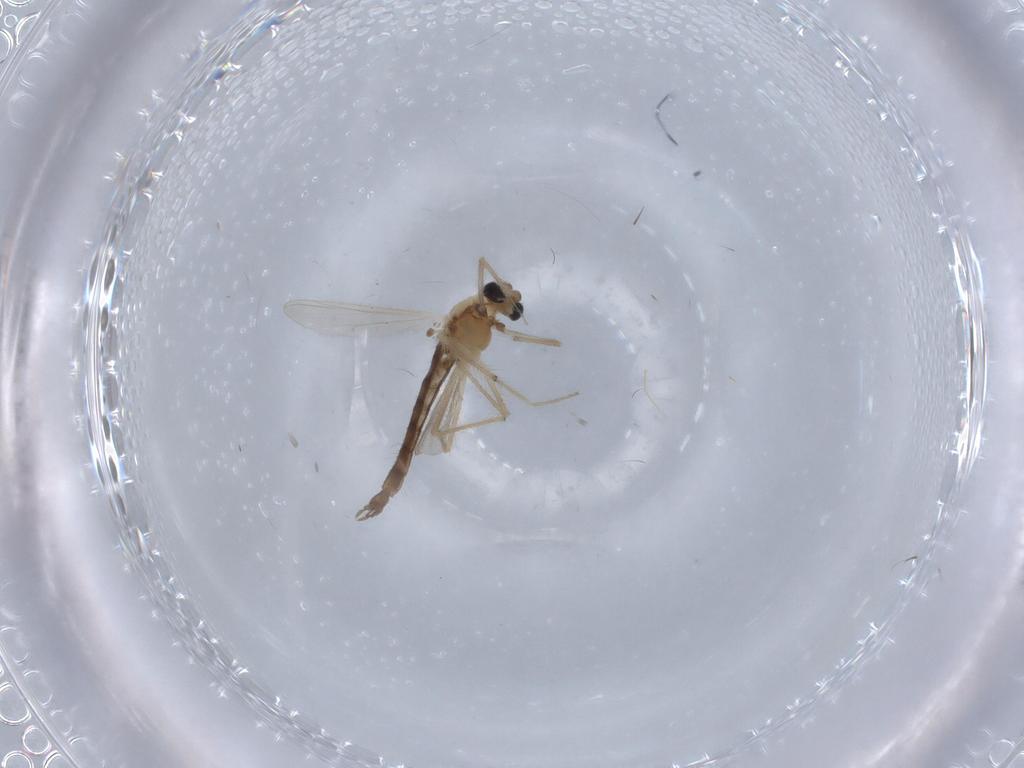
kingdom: Animalia
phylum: Arthropoda
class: Insecta
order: Diptera
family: Chironomidae
